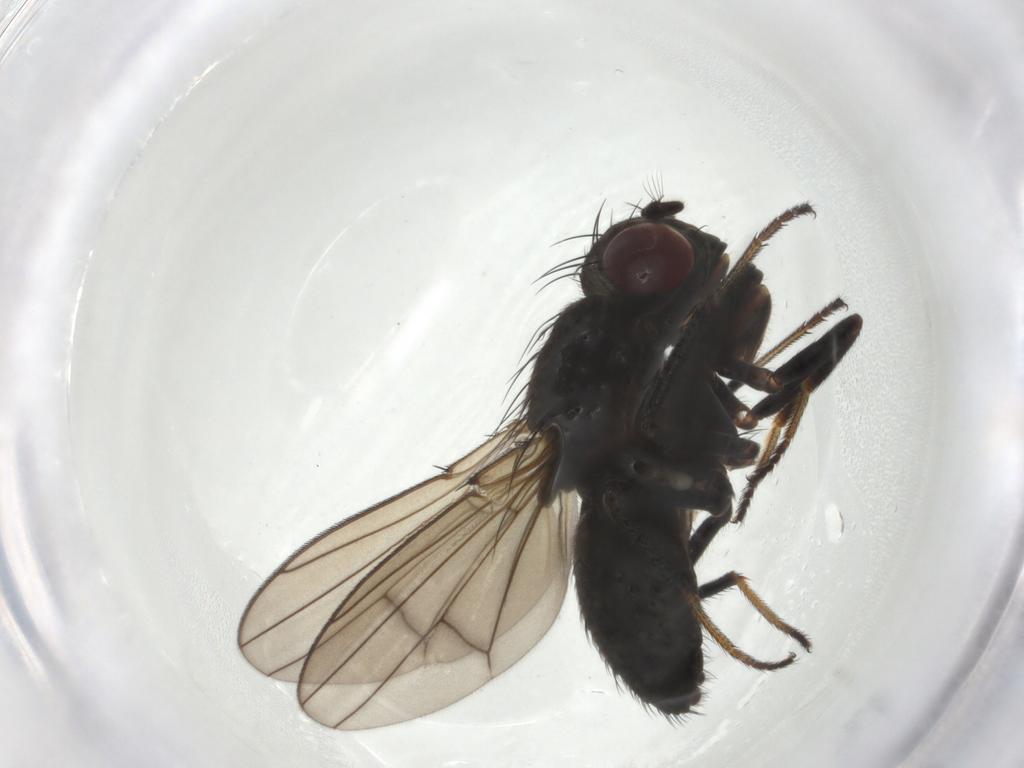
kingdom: Animalia
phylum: Arthropoda
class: Insecta
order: Diptera
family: Ephydridae
